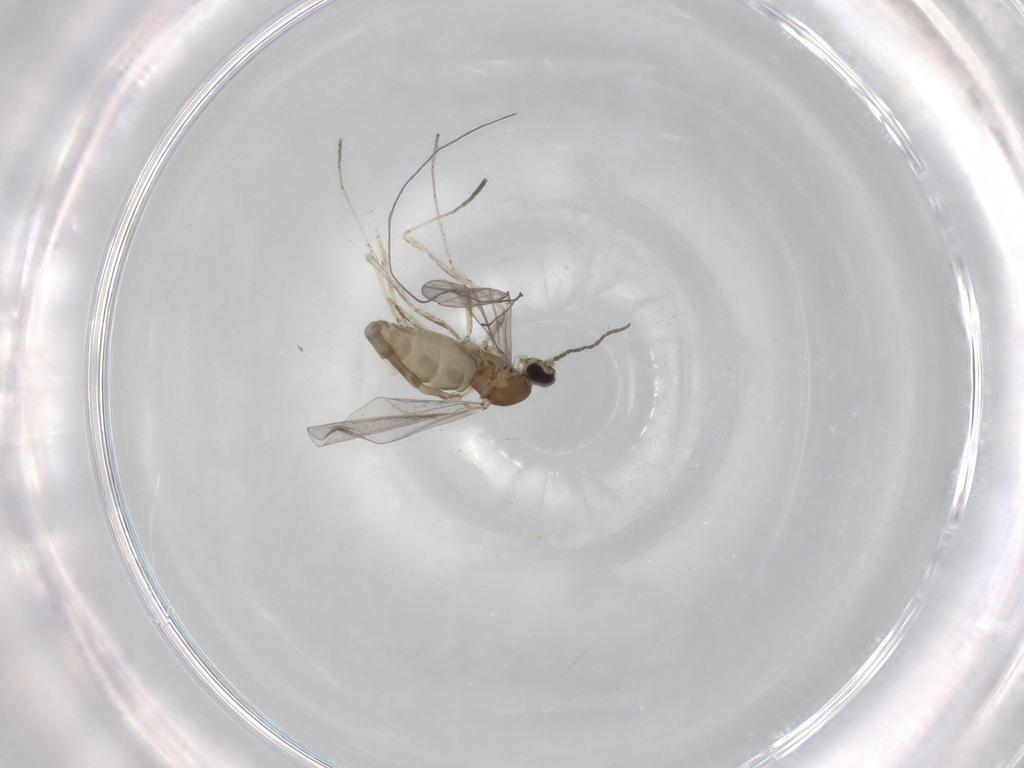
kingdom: Animalia
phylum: Arthropoda
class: Insecta
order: Diptera
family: Cecidomyiidae
